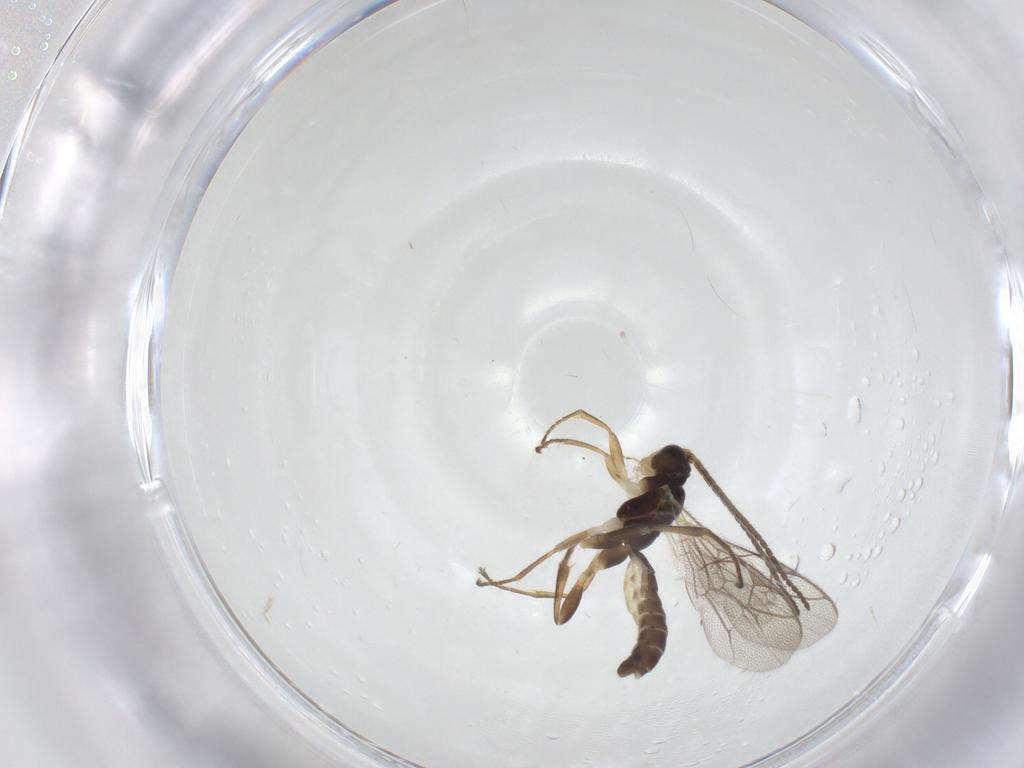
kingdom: Animalia
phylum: Arthropoda
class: Insecta
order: Hymenoptera
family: Ichneumonidae
